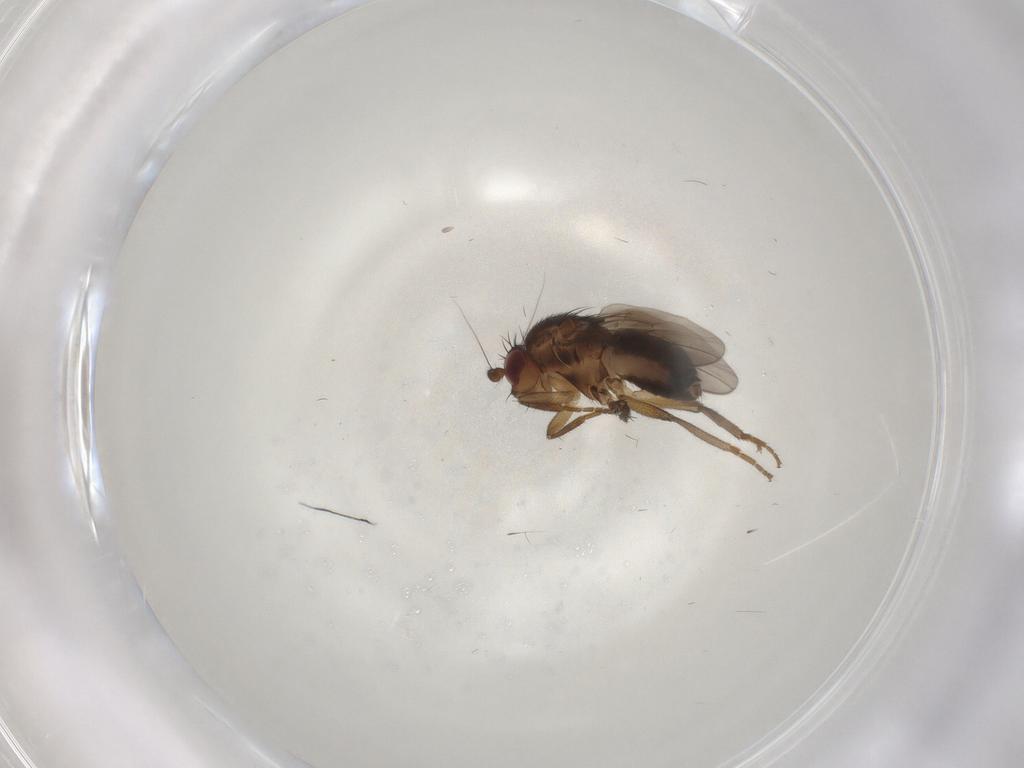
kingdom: Animalia
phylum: Arthropoda
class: Insecta
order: Diptera
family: Sphaeroceridae
